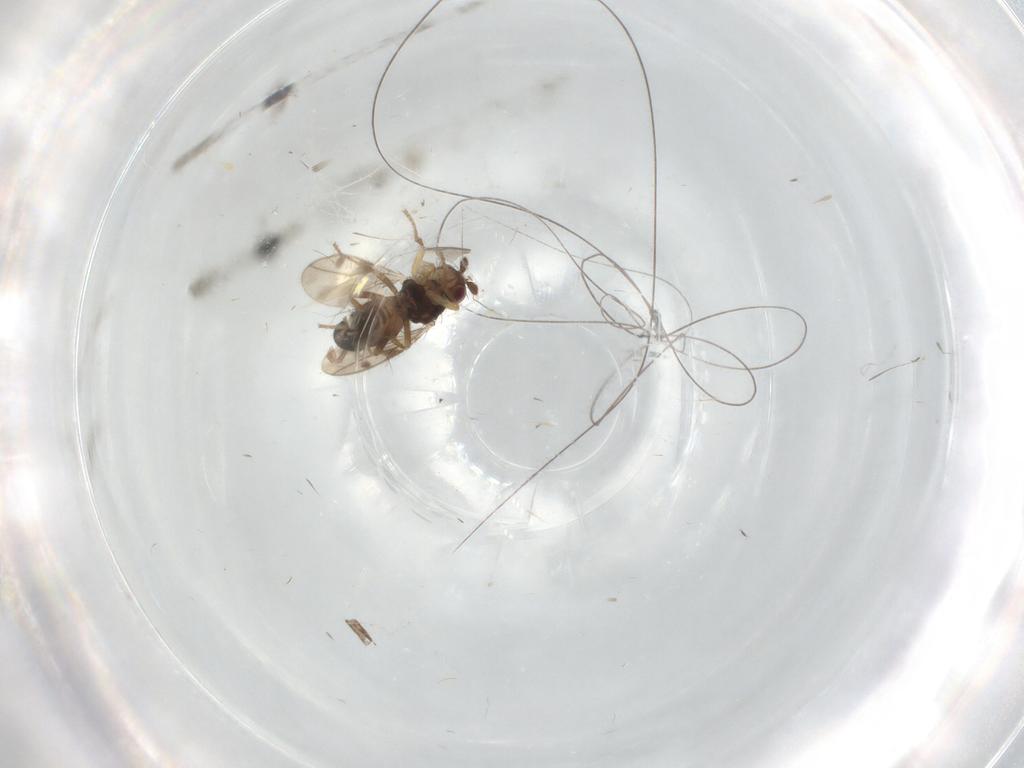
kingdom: Animalia
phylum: Arthropoda
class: Insecta
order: Diptera
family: Sphaeroceridae
